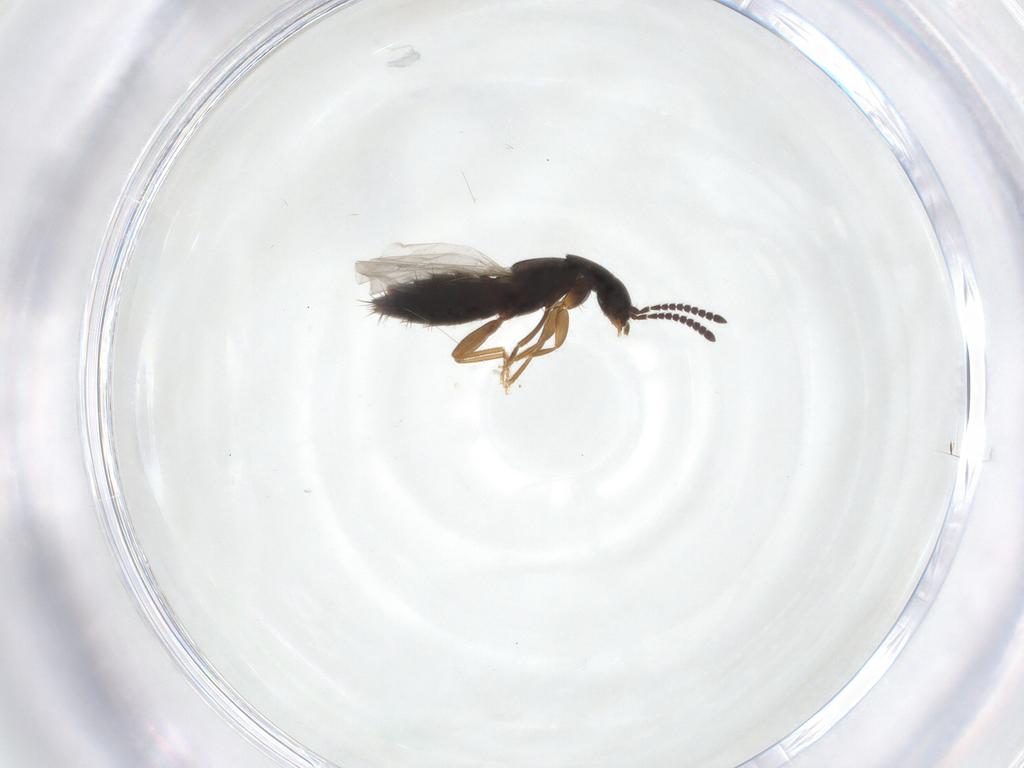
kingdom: Animalia
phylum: Arthropoda
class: Insecta
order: Coleoptera
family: Staphylinidae
